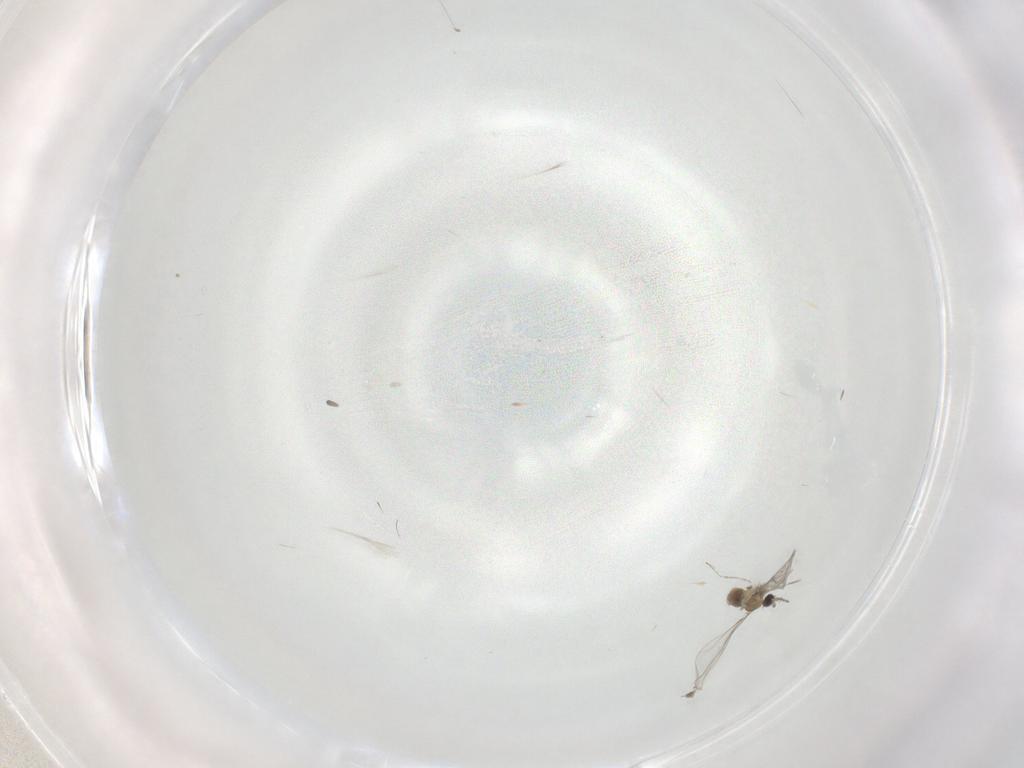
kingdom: Animalia
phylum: Arthropoda
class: Insecta
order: Diptera
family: Cecidomyiidae
